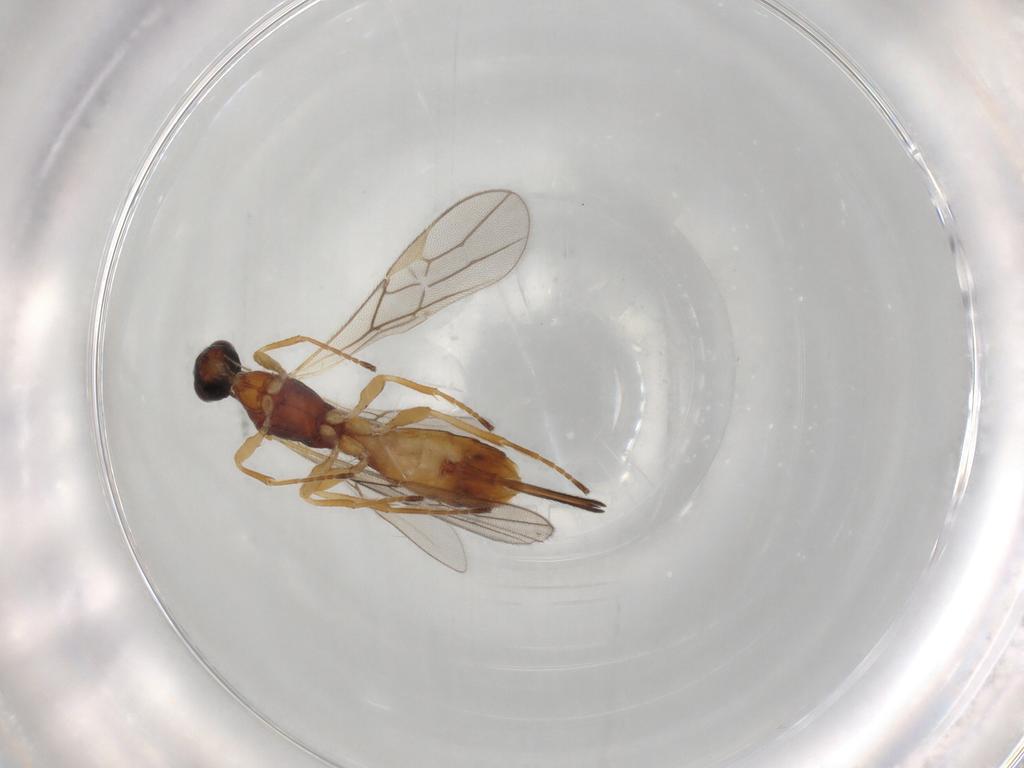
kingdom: Animalia
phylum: Arthropoda
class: Insecta
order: Hymenoptera
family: Braconidae
